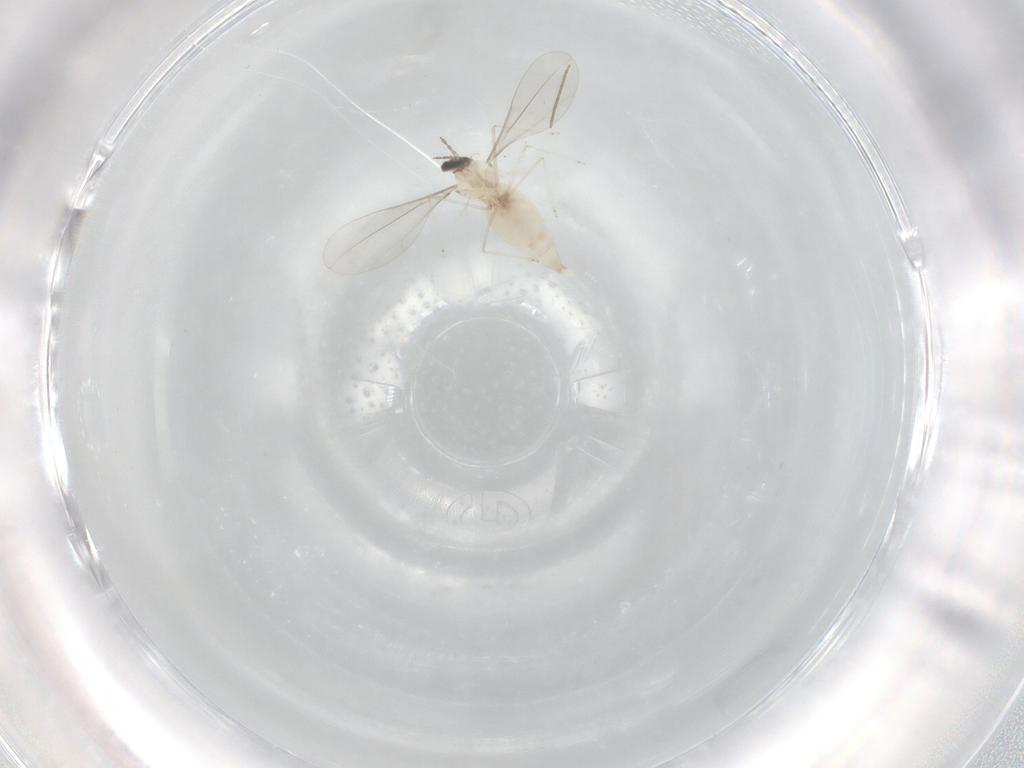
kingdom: Animalia
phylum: Arthropoda
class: Insecta
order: Diptera
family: Cecidomyiidae
